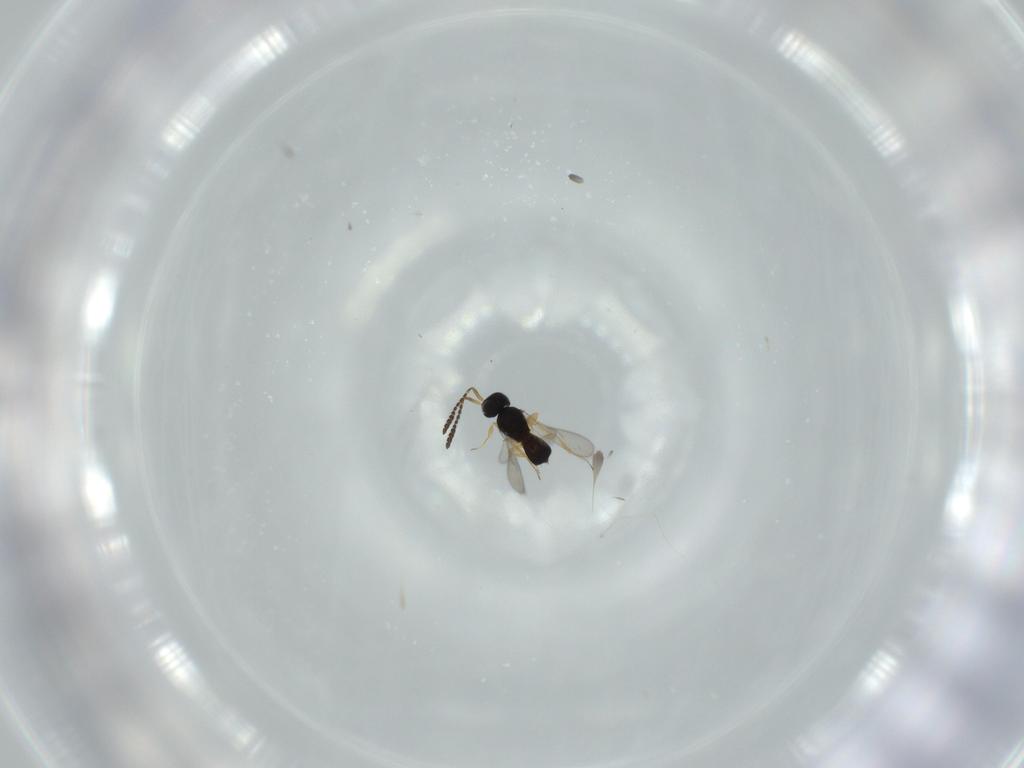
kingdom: Animalia
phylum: Arthropoda
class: Insecta
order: Hymenoptera
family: Scelionidae
